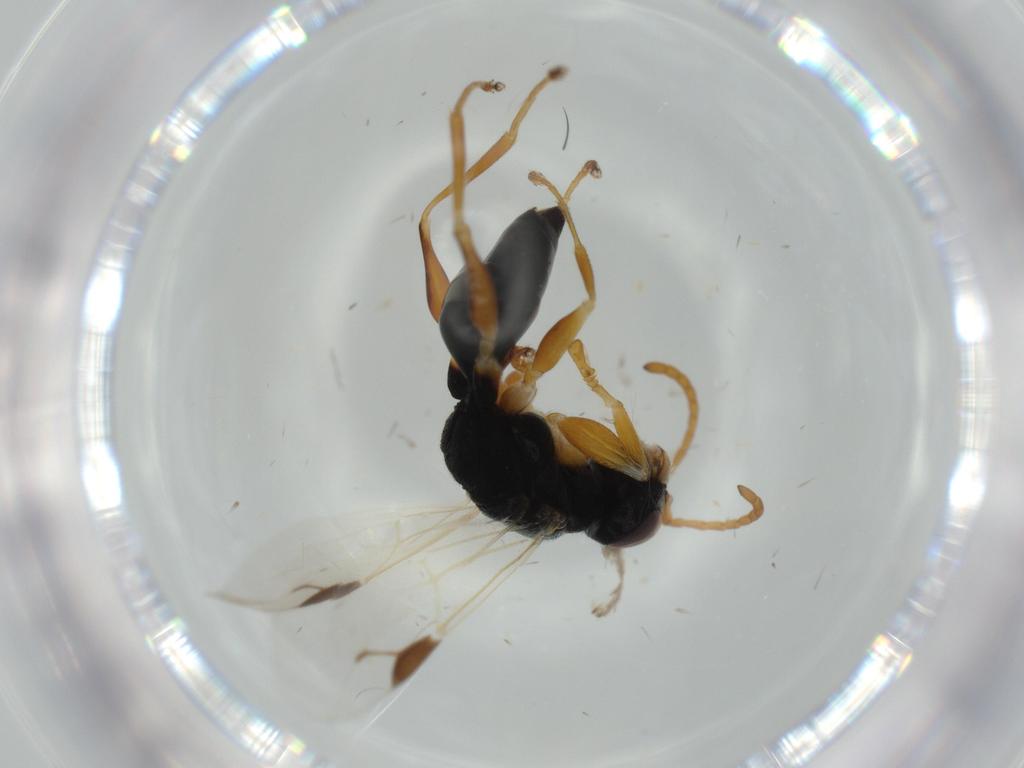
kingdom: Animalia
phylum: Arthropoda
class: Insecta
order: Hymenoptera
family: Dryinidae
